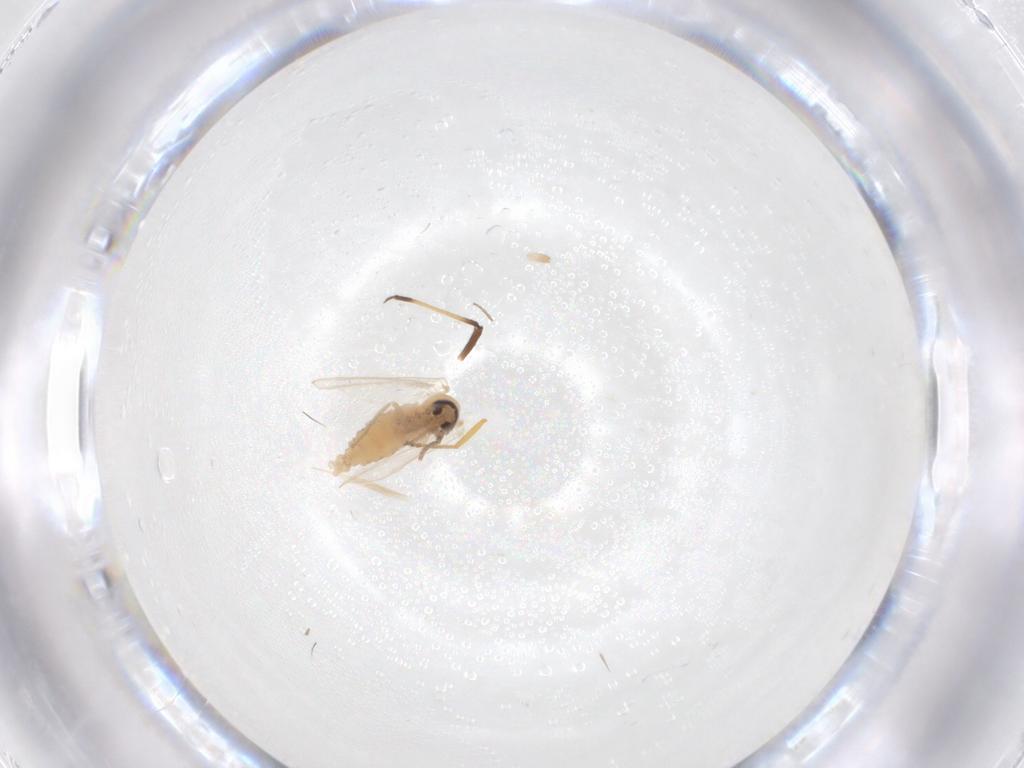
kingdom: Animalia
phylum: Arthropoda
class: Insecta
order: Diptera
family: Ceratopogonidae
